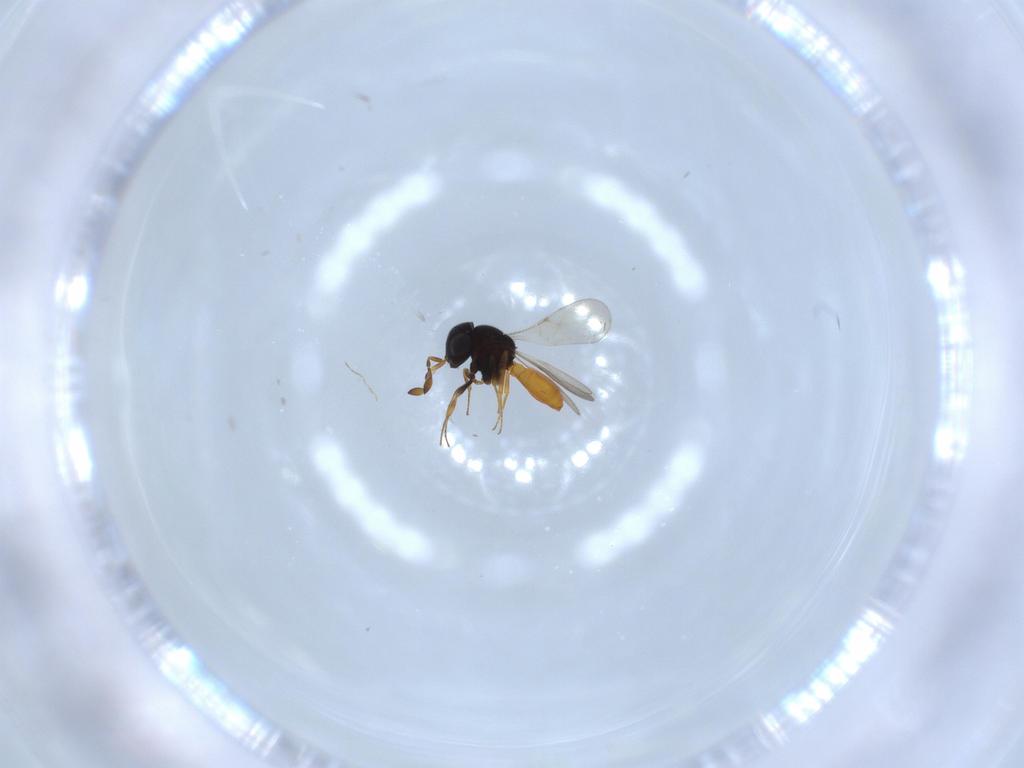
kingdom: Animalia
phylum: Arthropoda
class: Insecta
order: Hymenoptera
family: Scelionidae
